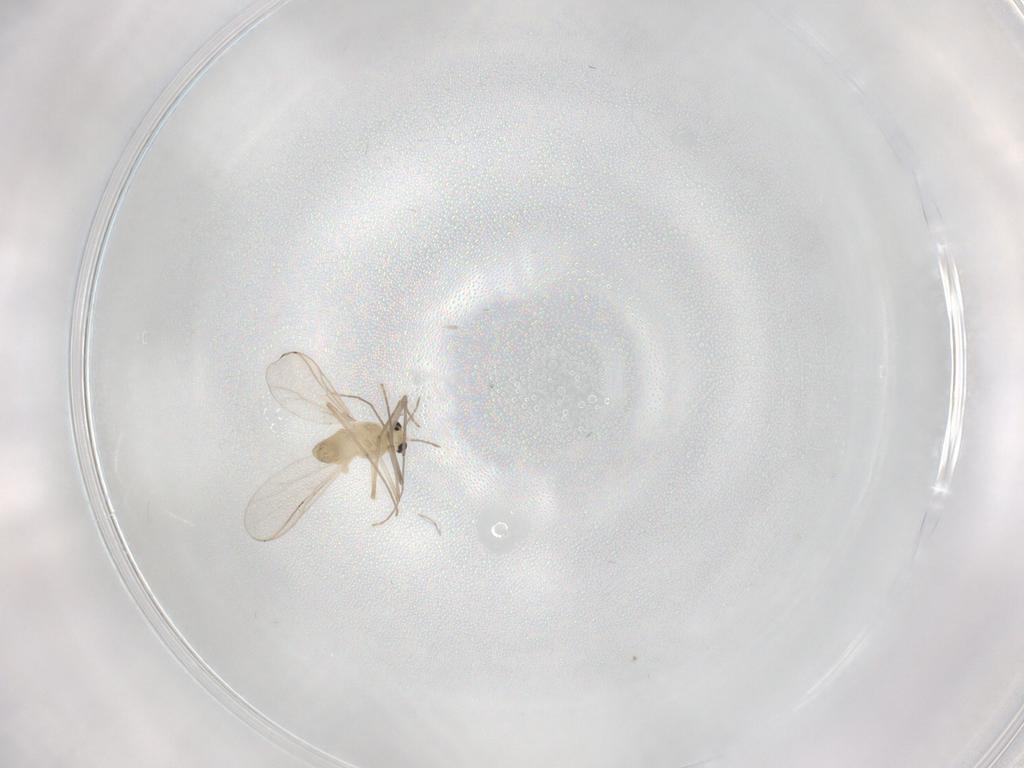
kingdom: Animalia
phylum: Arthropoda
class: Insecta
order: Diptera
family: Chironomidae
